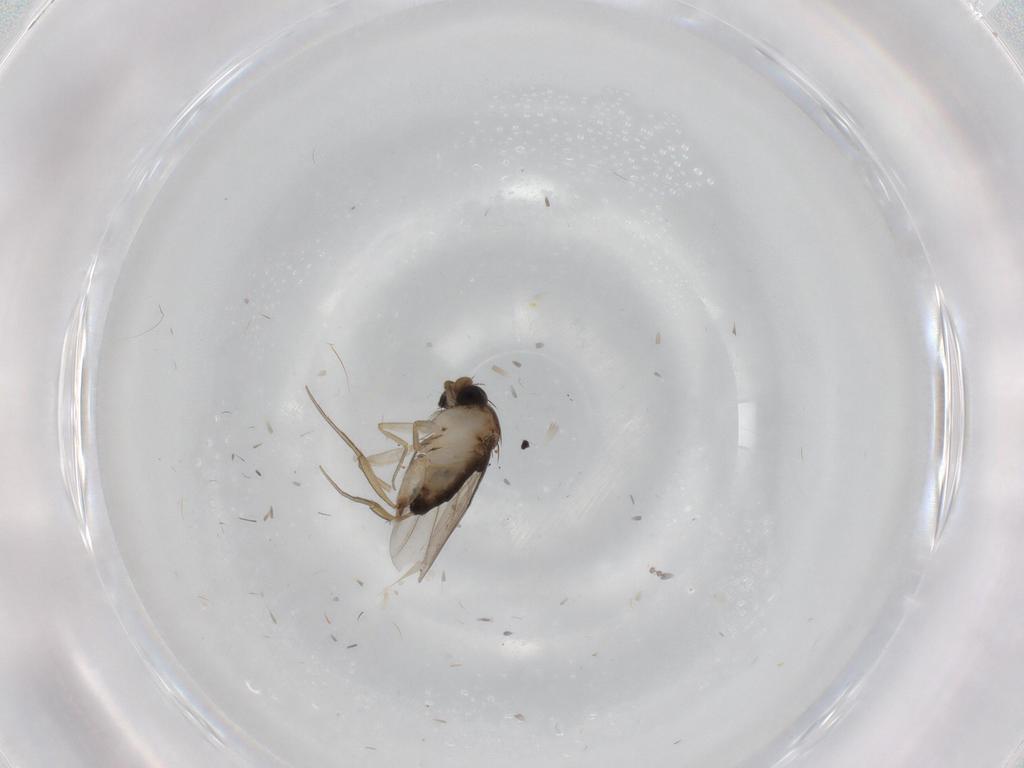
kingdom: Animalia
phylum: Arthropoda
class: Insecta
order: Diptera
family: Phoridae
